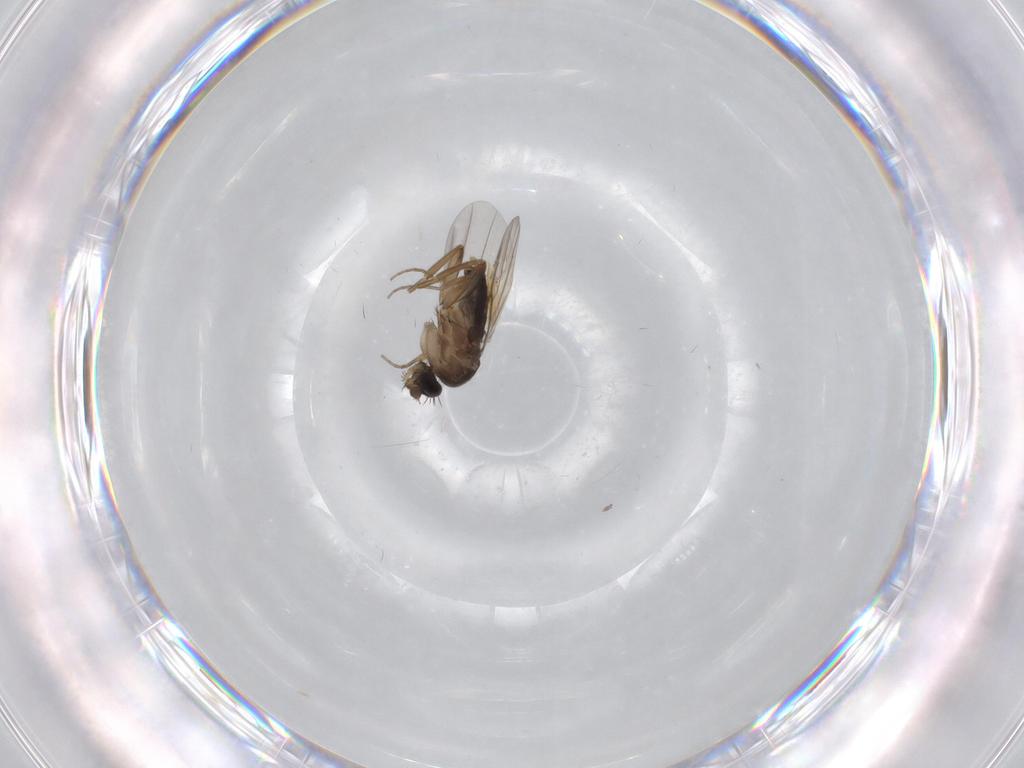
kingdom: Animalia
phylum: Arthropoda
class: Insecta
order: Diptera
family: Phoridae
